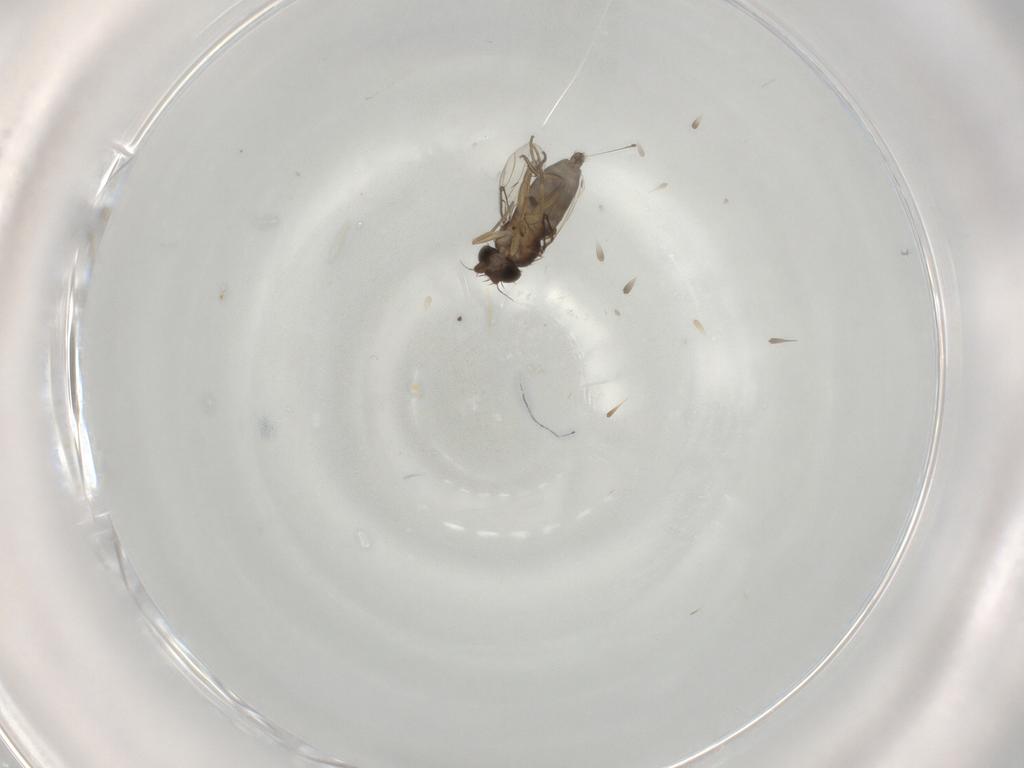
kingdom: Animalia
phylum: Arthropoda
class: Insecta
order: Diptera
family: Phoridae
